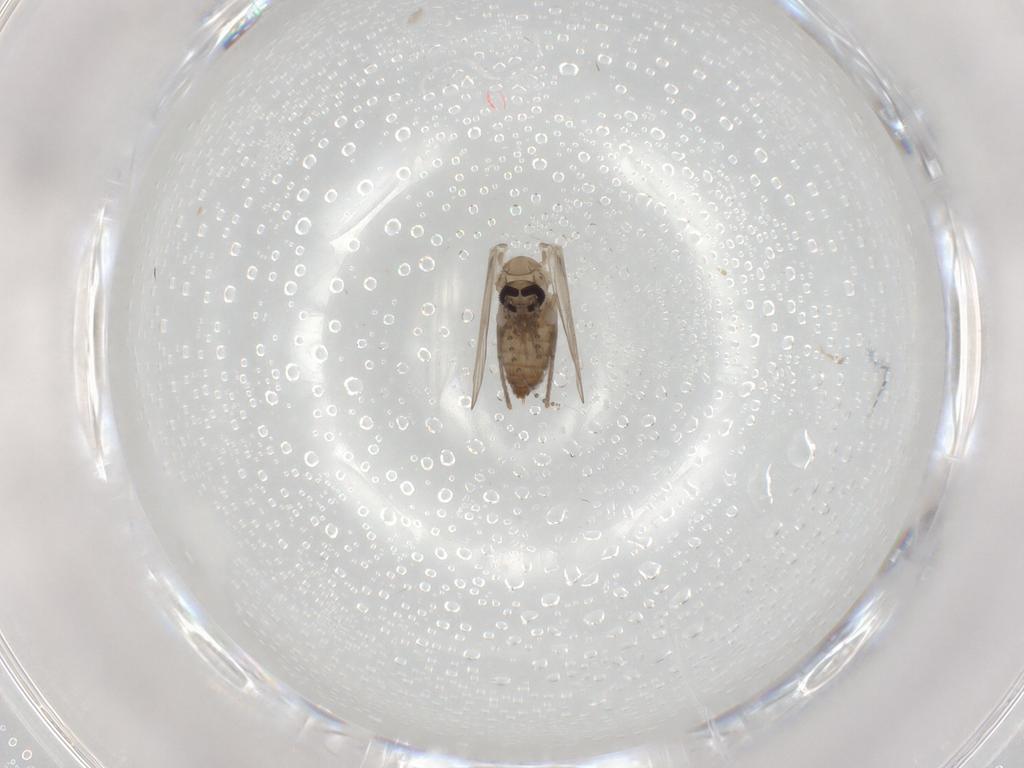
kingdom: Animalia
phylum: Arthropoda
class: Insecta
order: Diptera
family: Psychodidae
